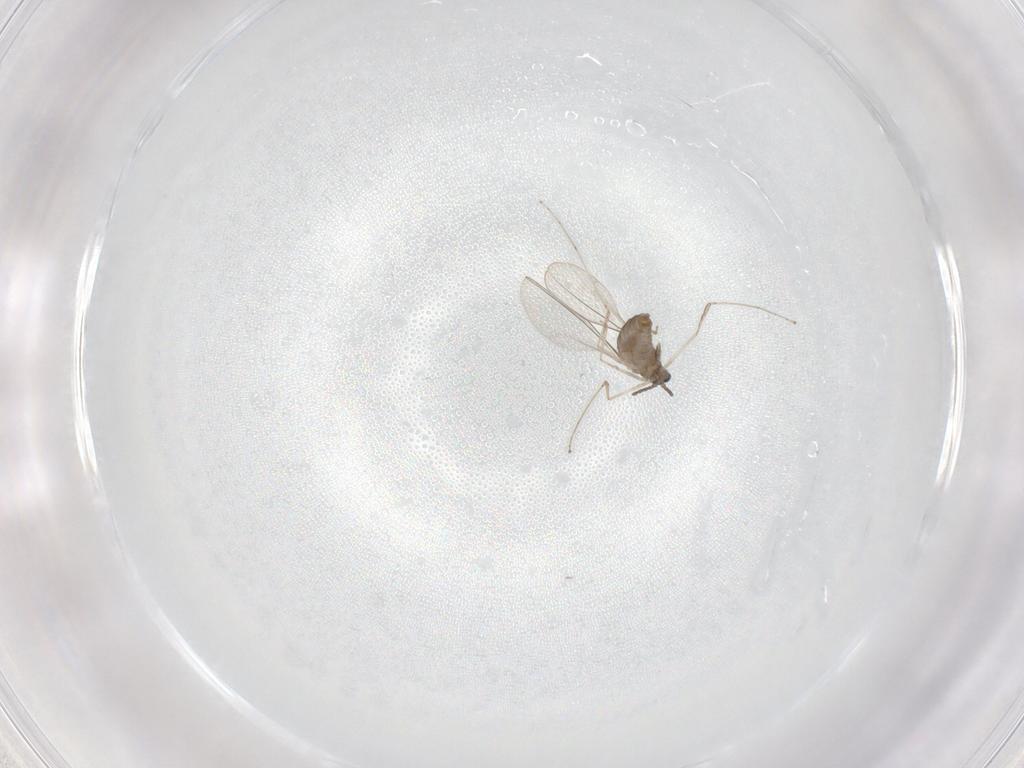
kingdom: Animalia
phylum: Arthropoda
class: Insecta
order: Diptera
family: Cecidomyiidae
